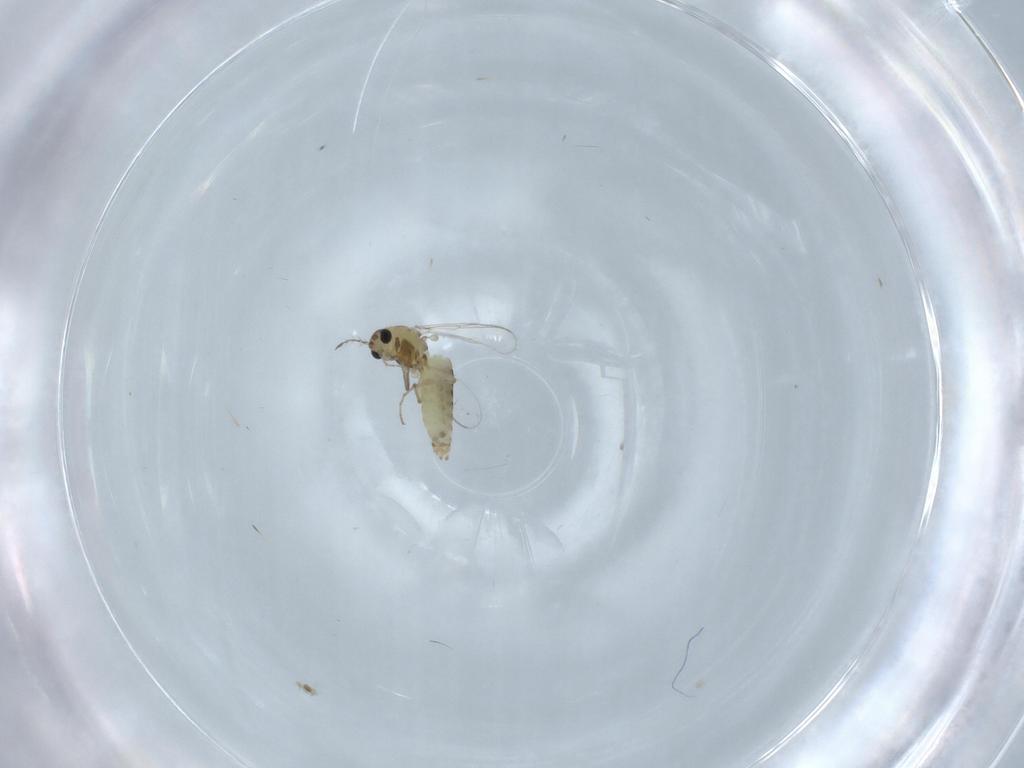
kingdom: Animalia
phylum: Arthropoda
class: Insecta
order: Diptera
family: Chironomidae
